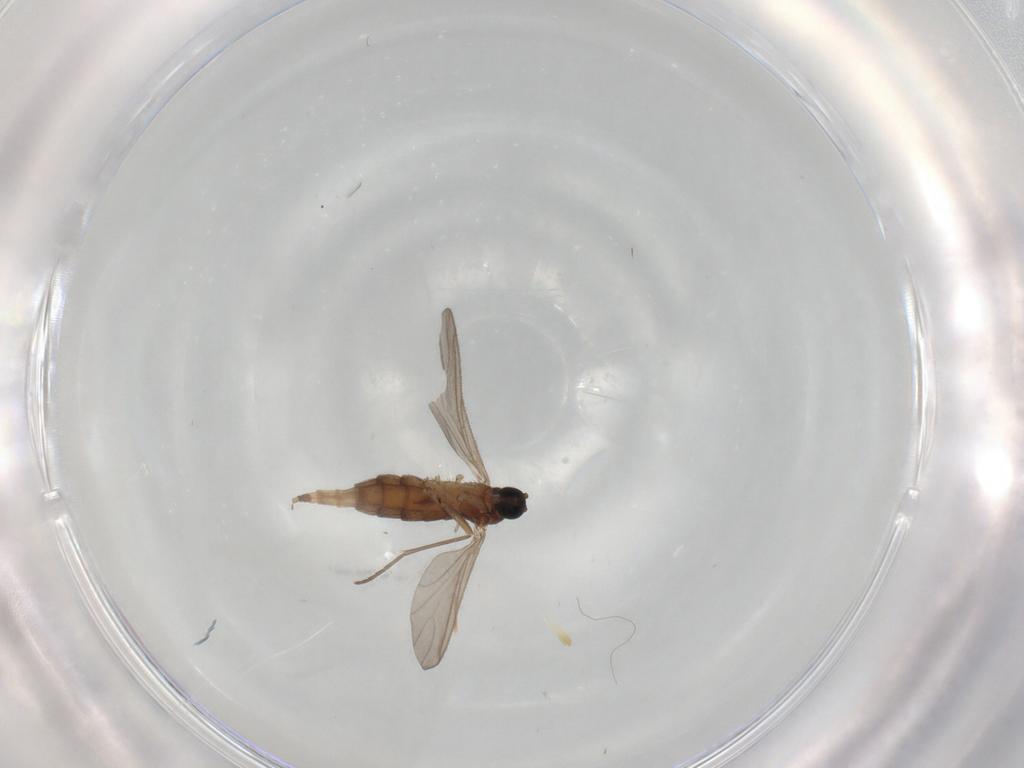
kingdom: Animalia
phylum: Arthropoda
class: Insecta
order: Diptera
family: Sciaridae
